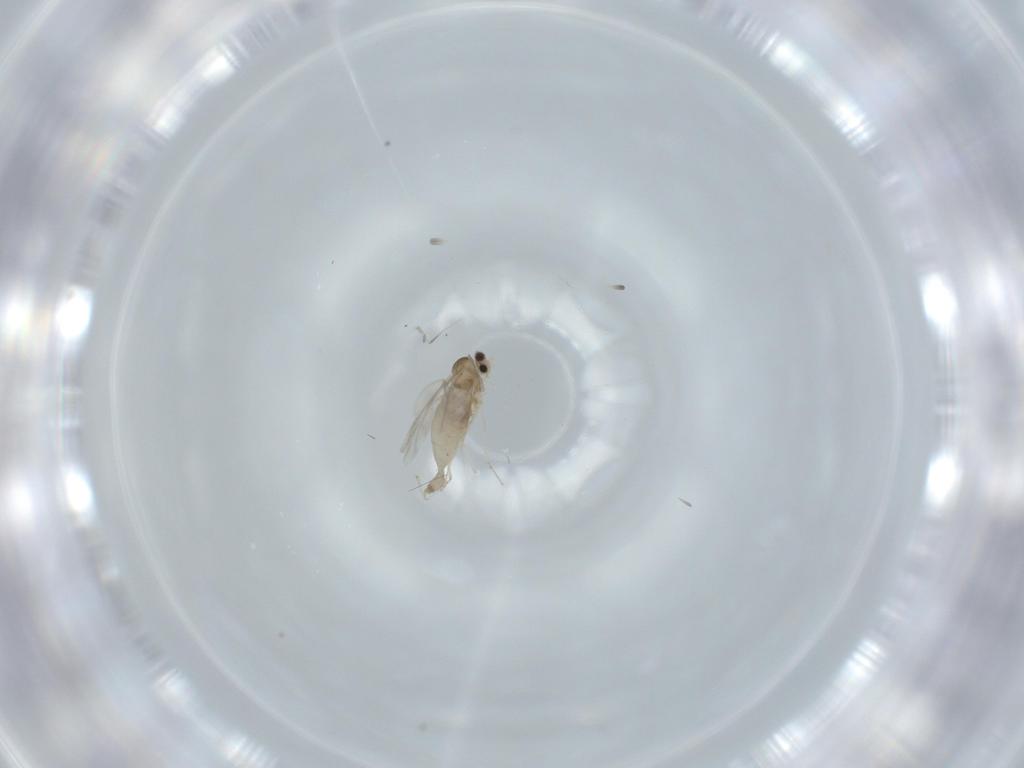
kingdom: Animalia
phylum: Arthropoda
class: Insecta
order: Diptera
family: Cecidomyiidae
